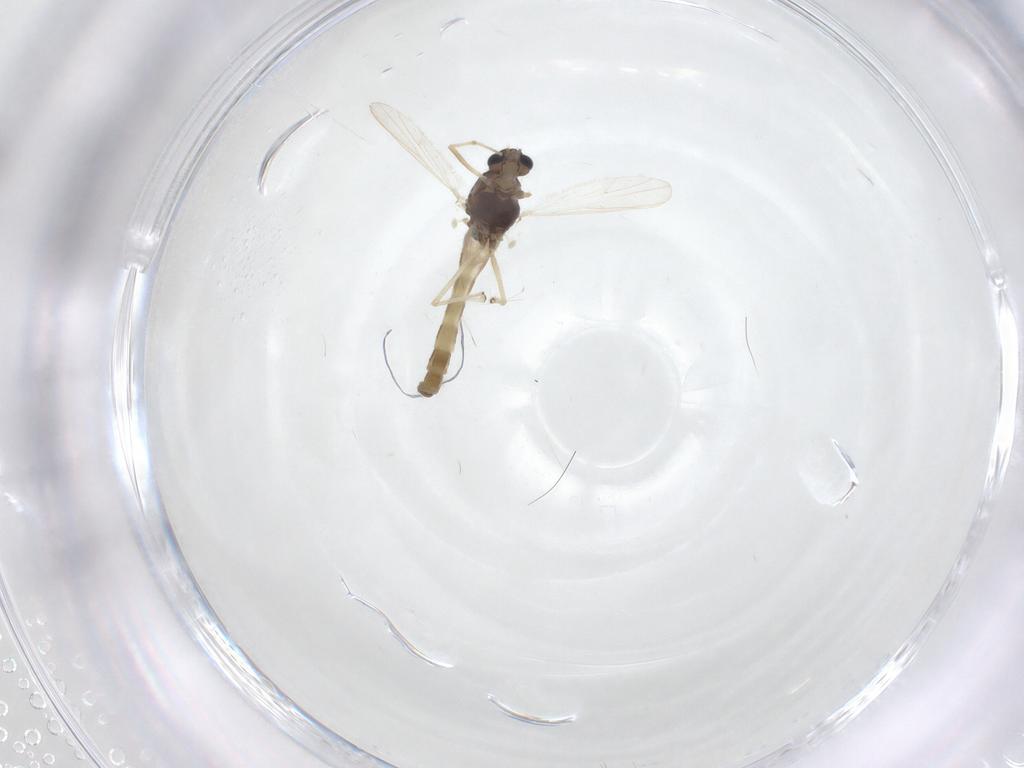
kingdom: Animalia
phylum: Arthropoda
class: Insecta
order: Diptera
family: Chironomidae
